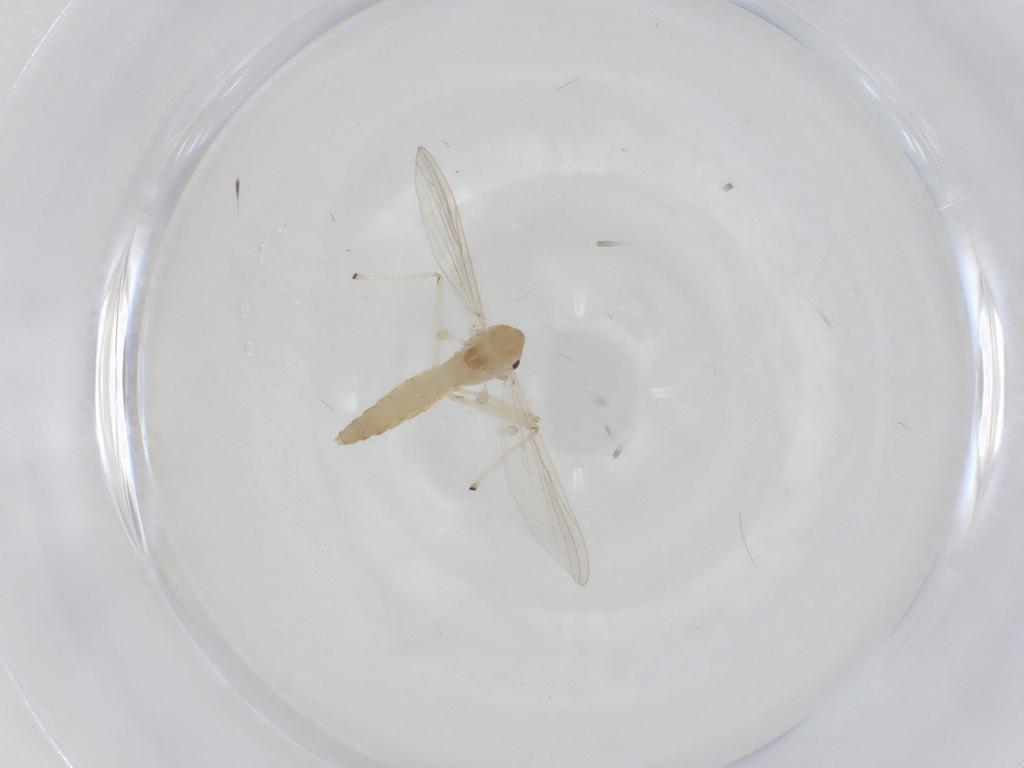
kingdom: Animalia
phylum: Arthropoda
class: Insecta
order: Diptera
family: Chironomidae
